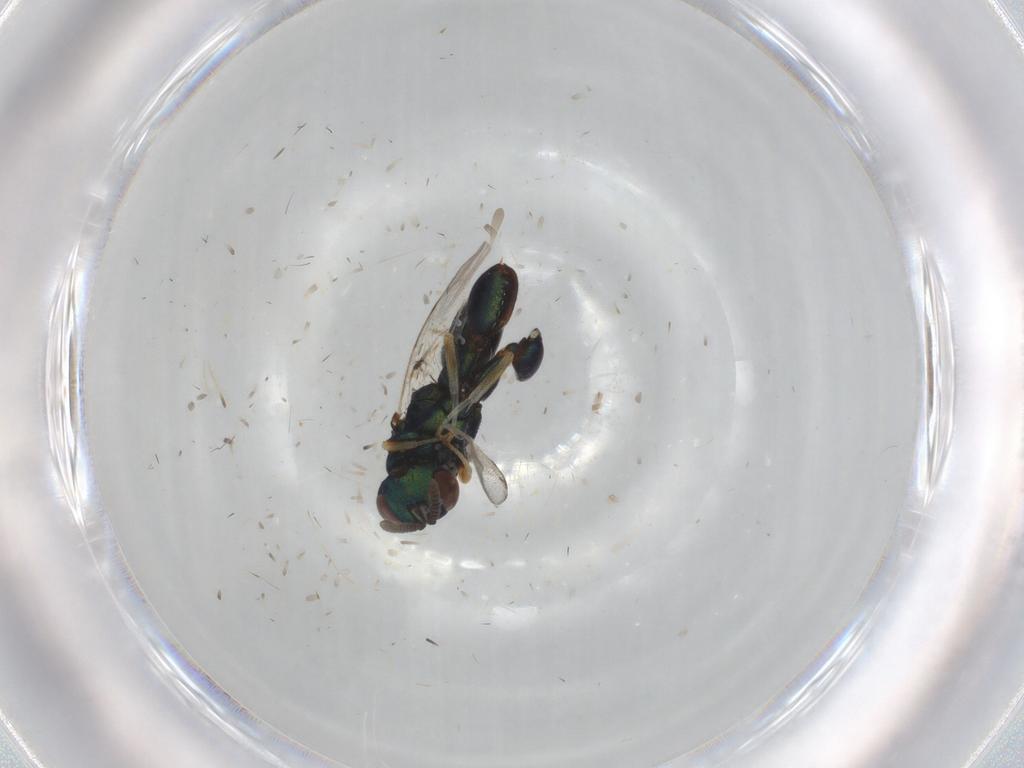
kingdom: Animalia
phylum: Arthropoda
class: Insecta
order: Hymenoptera
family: Torymidae
